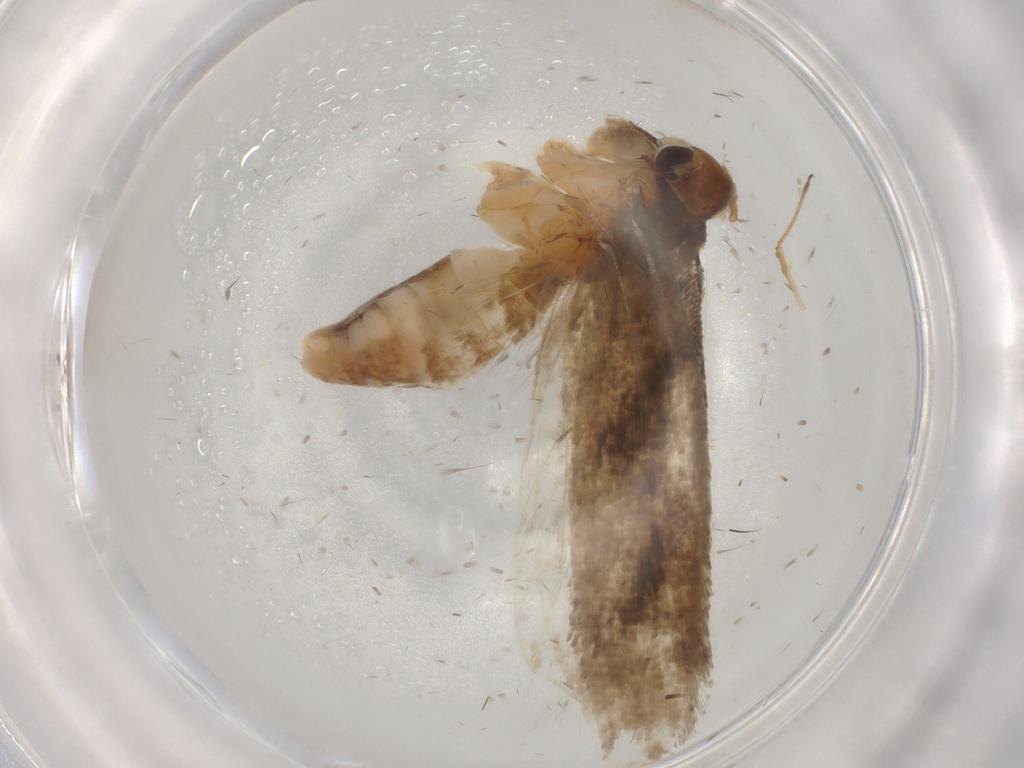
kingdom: Animalia
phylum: Arthropoda
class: Insecta
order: Lepidoptera
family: Gelechiidae
